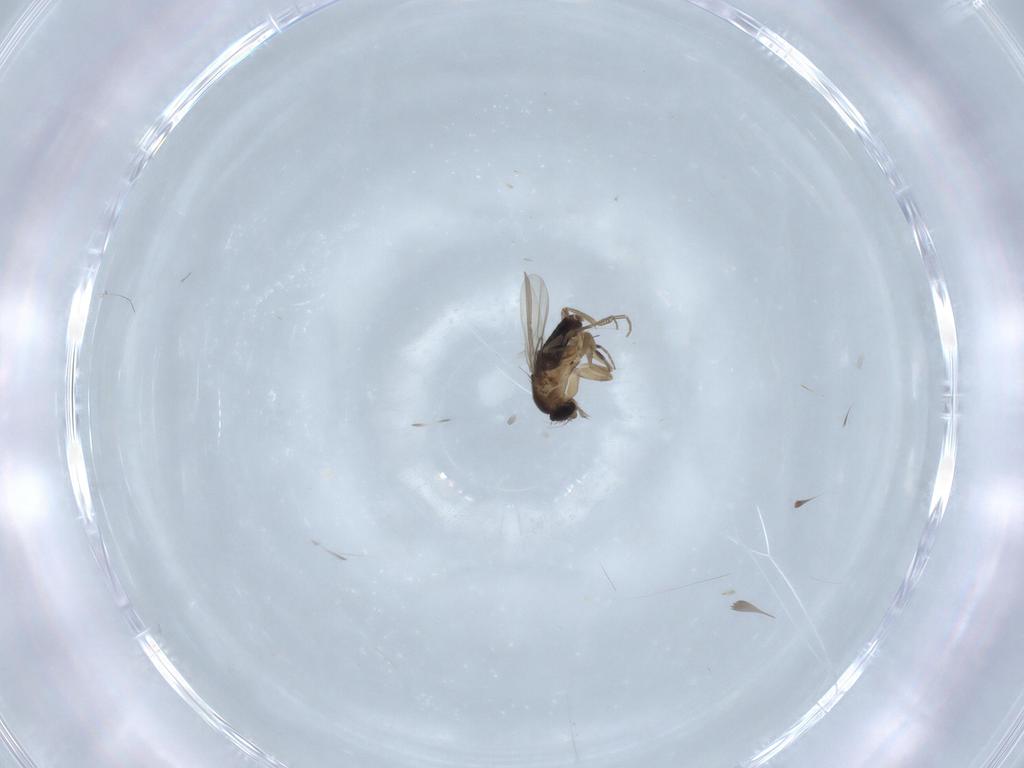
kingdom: Animalia
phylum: Arthropoda
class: Insecta
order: Diptera
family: Phoridae
